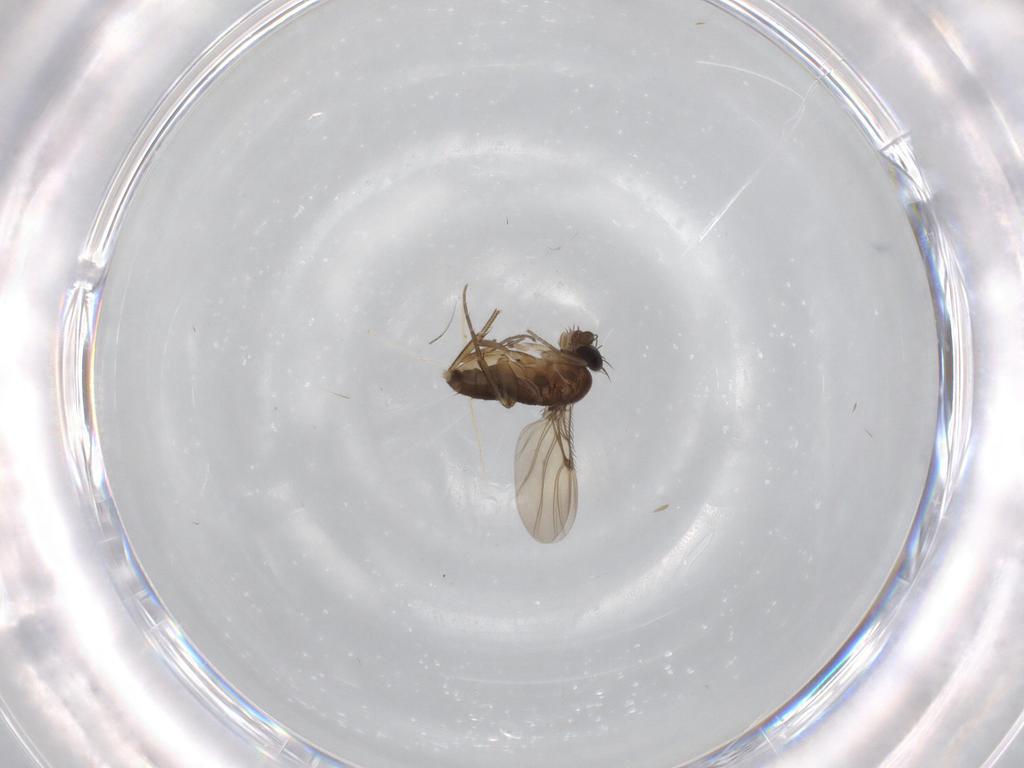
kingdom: Animalia
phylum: Arthropoda
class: Insecta
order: Diptera
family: Phoridae
